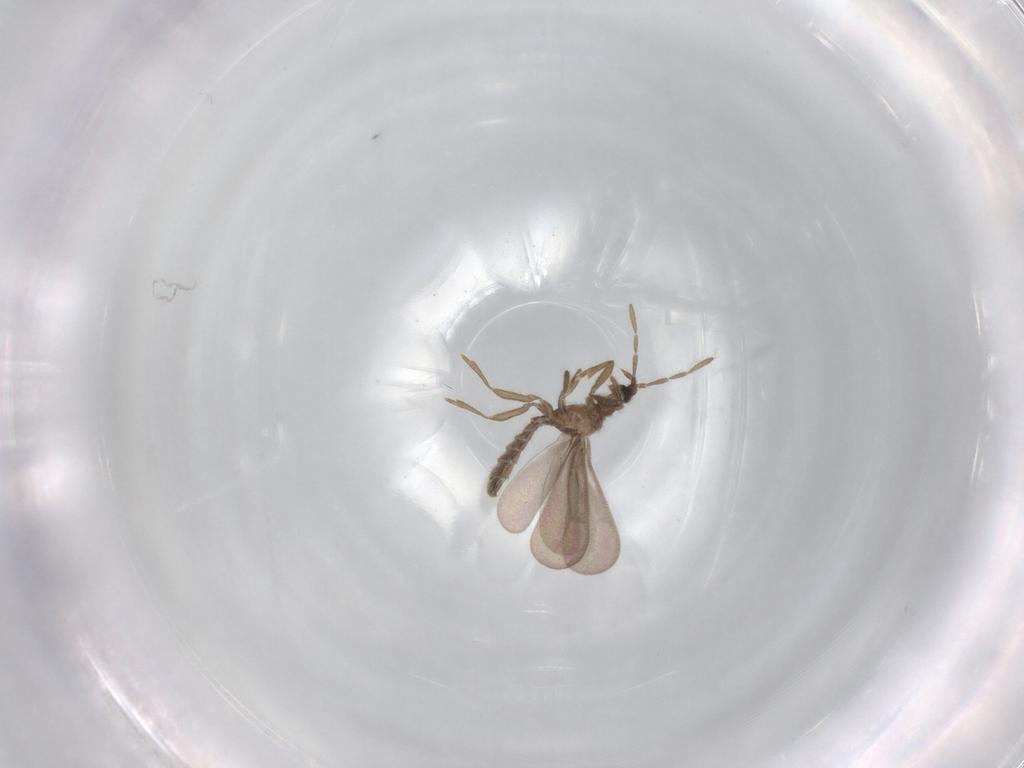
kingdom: Animalia
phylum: Arthropoda
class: Insecta
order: Hemiptera
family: Enicocephalidae
